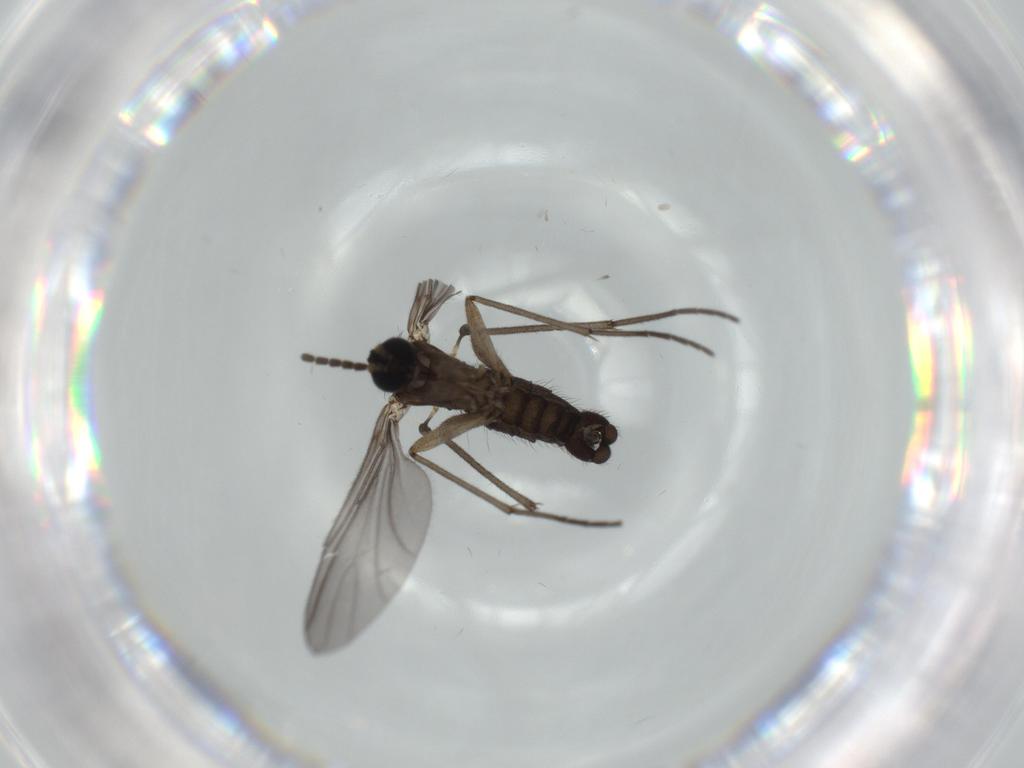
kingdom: Animalia
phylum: Arthropoda
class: Insecta
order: Diptera
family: Sciaridae
